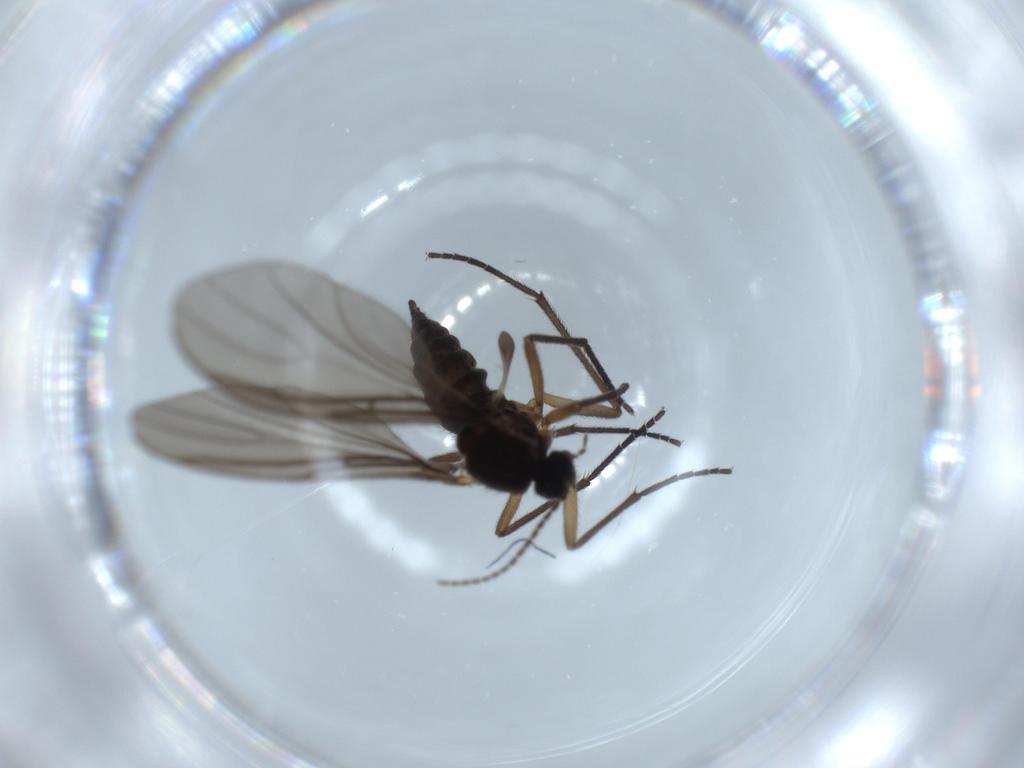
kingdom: Animalia
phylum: Arthropoda
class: Insecta
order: Diptera
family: Sciaridae
